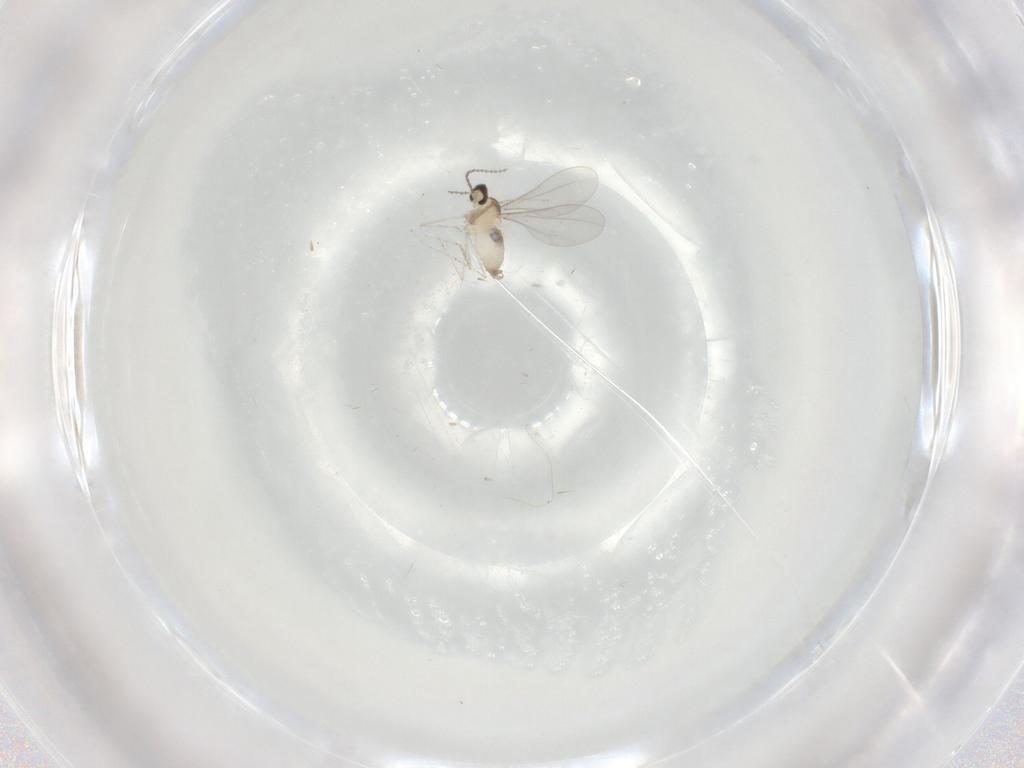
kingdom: Animalia
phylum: Arthropoda
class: Insecta
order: Diptera
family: Cecidomyiidae
